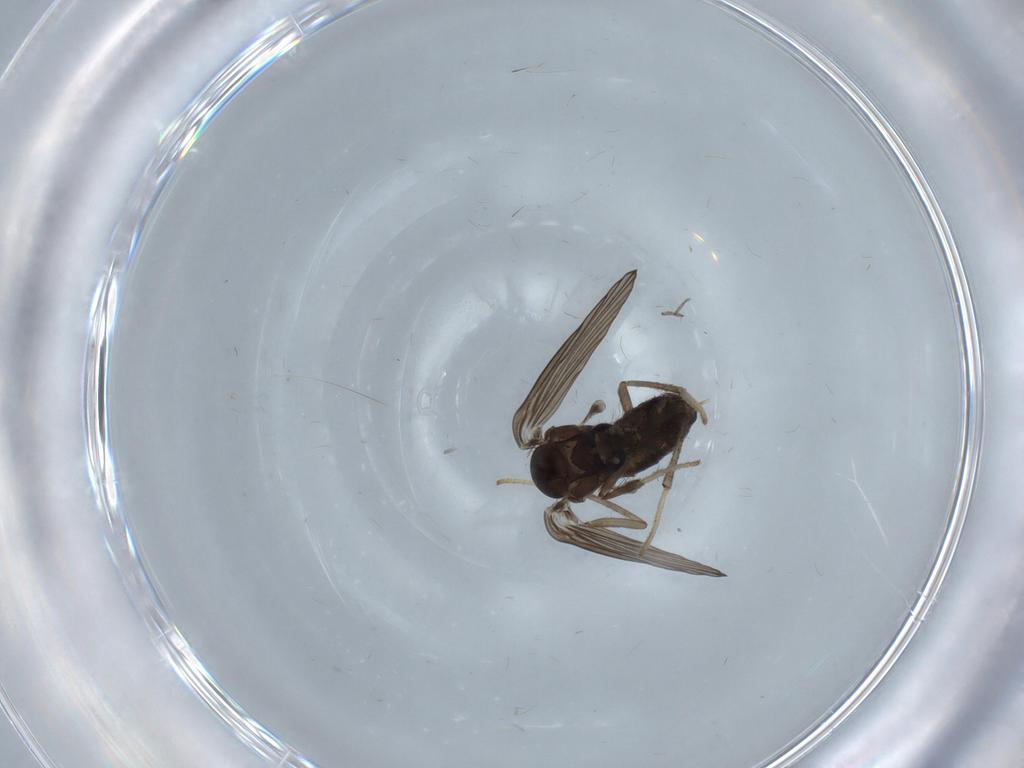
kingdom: Animalia
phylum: Arthropoda
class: Insecta
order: Diptera
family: Psychodidae
